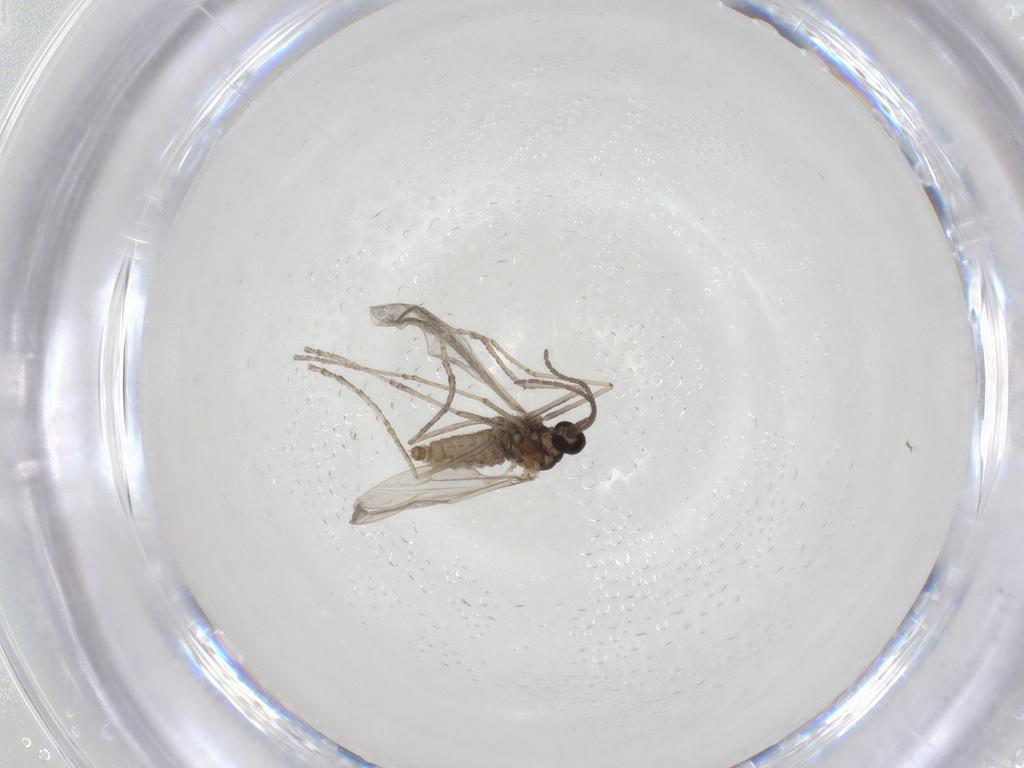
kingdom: Animalia
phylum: Arthropoda
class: Insecta
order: Diptera
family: Cecidomyiidae
